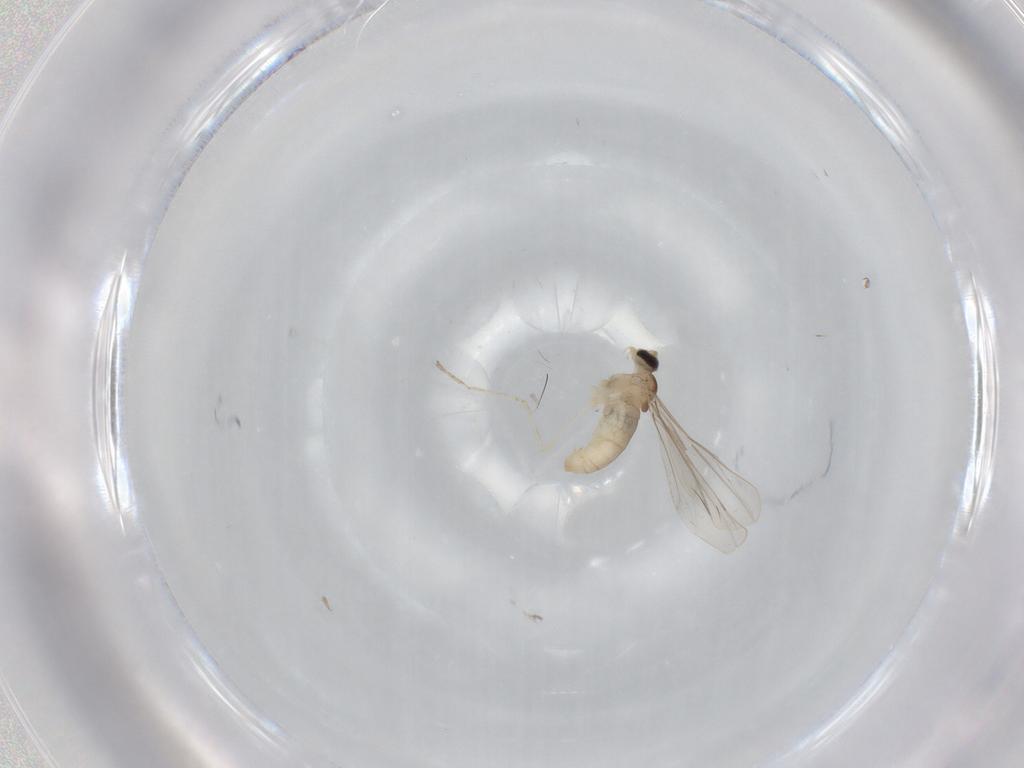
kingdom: Animalia
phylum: Arthropoda
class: Insecta
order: Diptera
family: Cecidomyiidae
